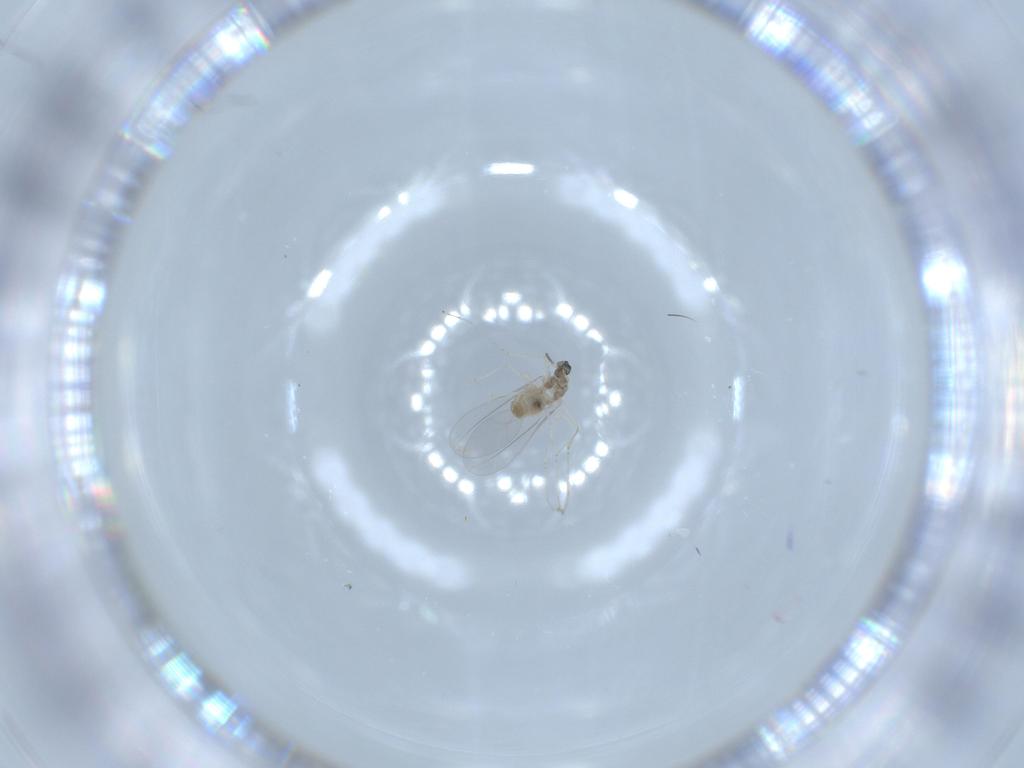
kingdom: Animalia
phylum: Arthropoda
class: Insecta
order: Diptera
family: Cecidomyiidae
